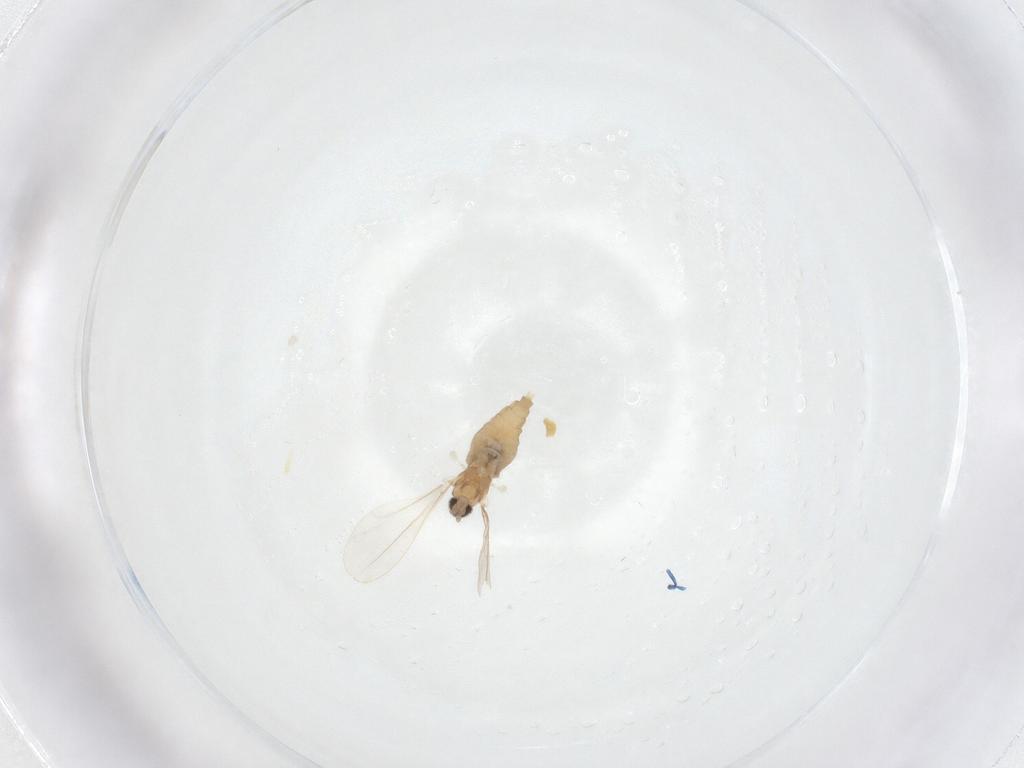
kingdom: Animalia
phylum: Arthropoda
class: Insecta
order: Diptera
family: Cecidomyiidae
